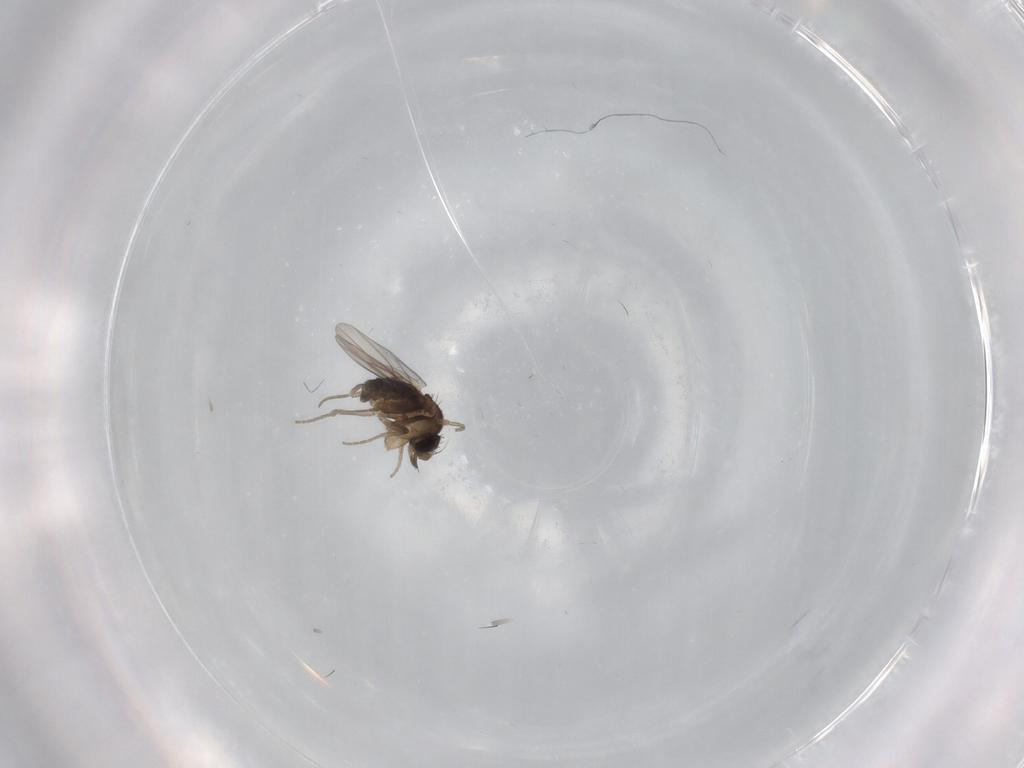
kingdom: Animalia
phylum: Arthropoda
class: Insecta
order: Diptera
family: Phoridae
